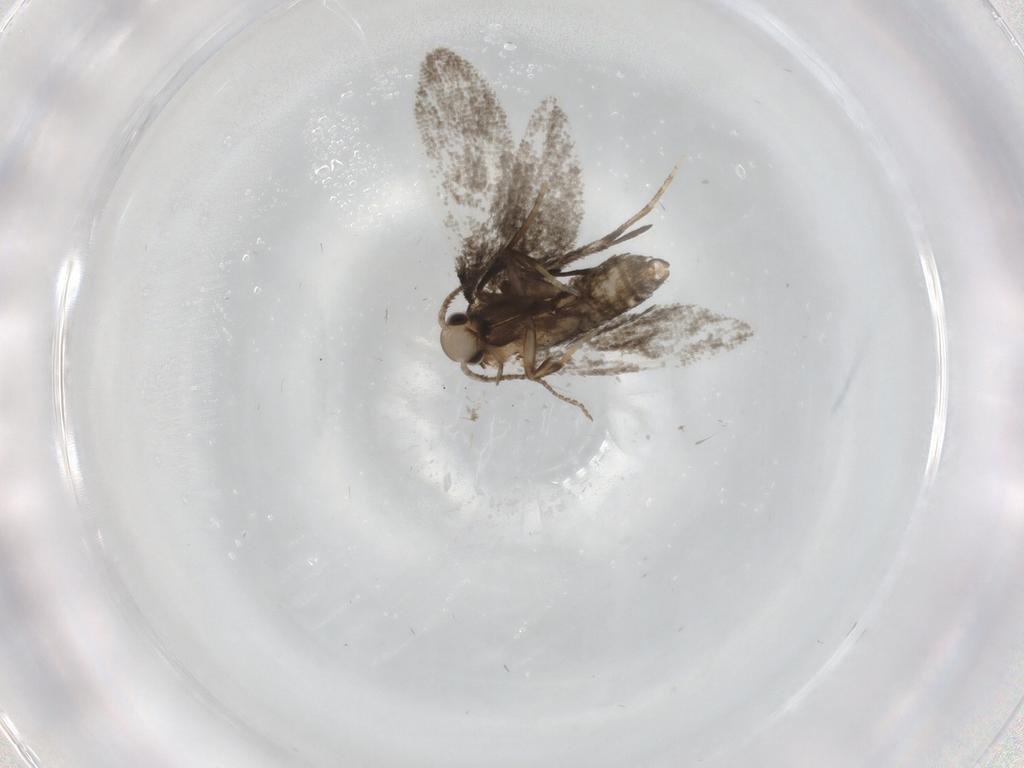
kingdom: Animalia
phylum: Arthropoda
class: Insecta
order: Lepidoptera
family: Psychidae
